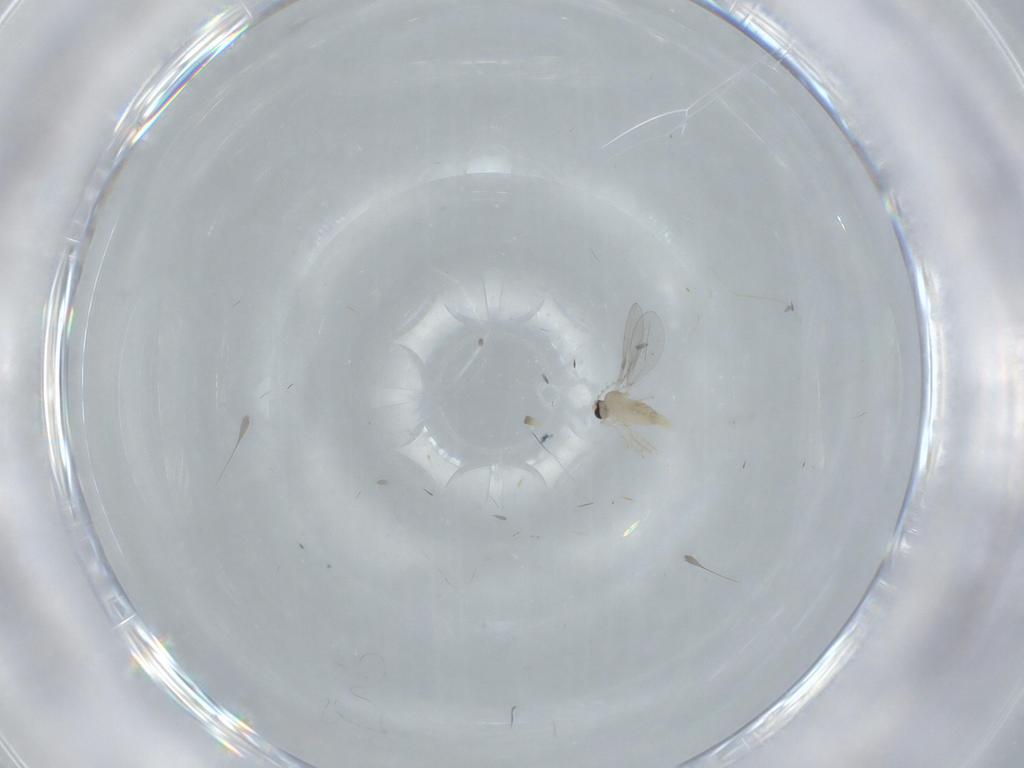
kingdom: Animalia
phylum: Arthropoda
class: Insecta
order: Diptera
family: Cecidomyiidae
